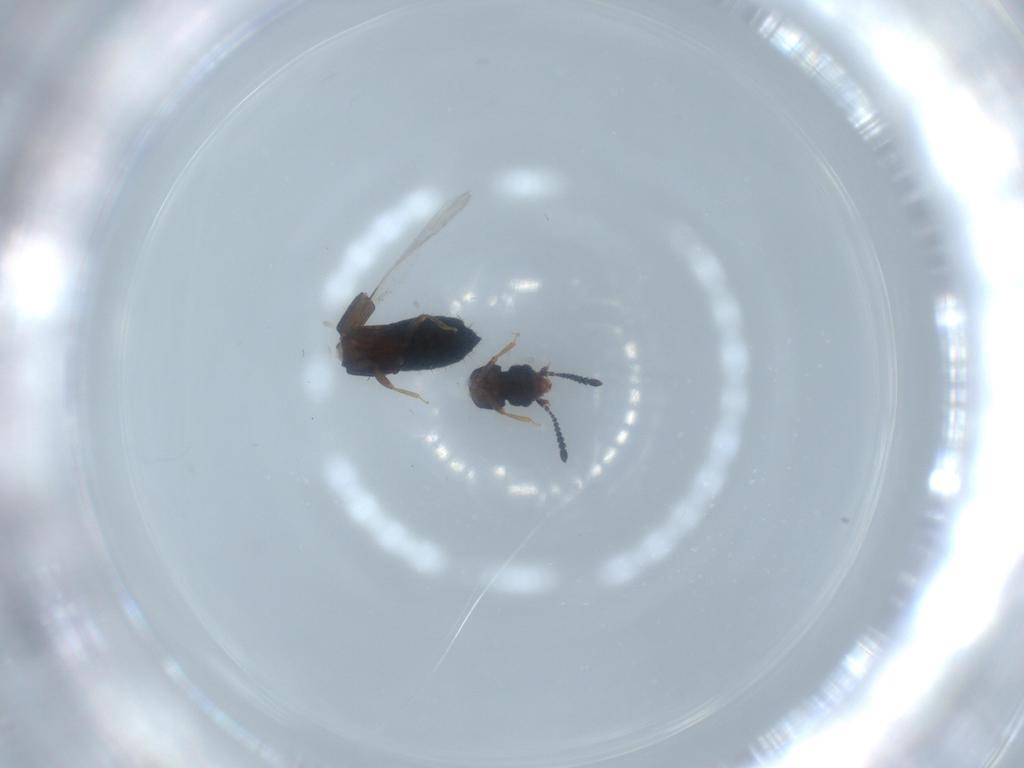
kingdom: Animalia
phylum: Arthropoda
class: Insecta
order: Coleoptera
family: Staphylinidae
